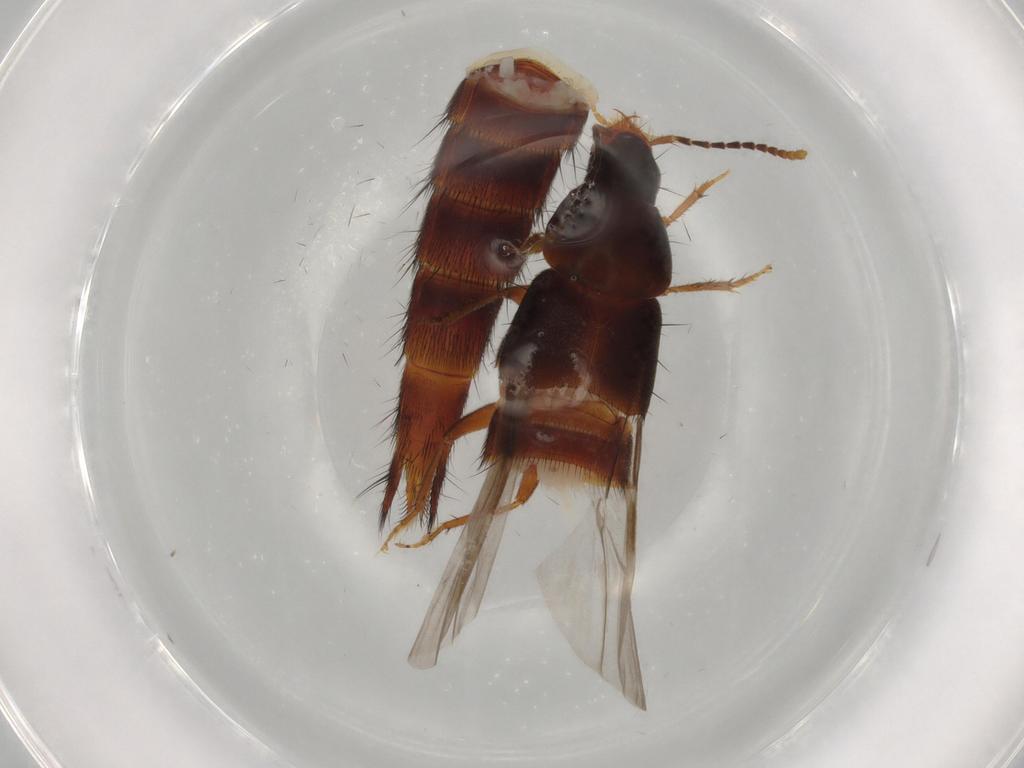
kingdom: Animalia
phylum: Arthropoda
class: Insecta
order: Coleoptera
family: Staphylinidae
